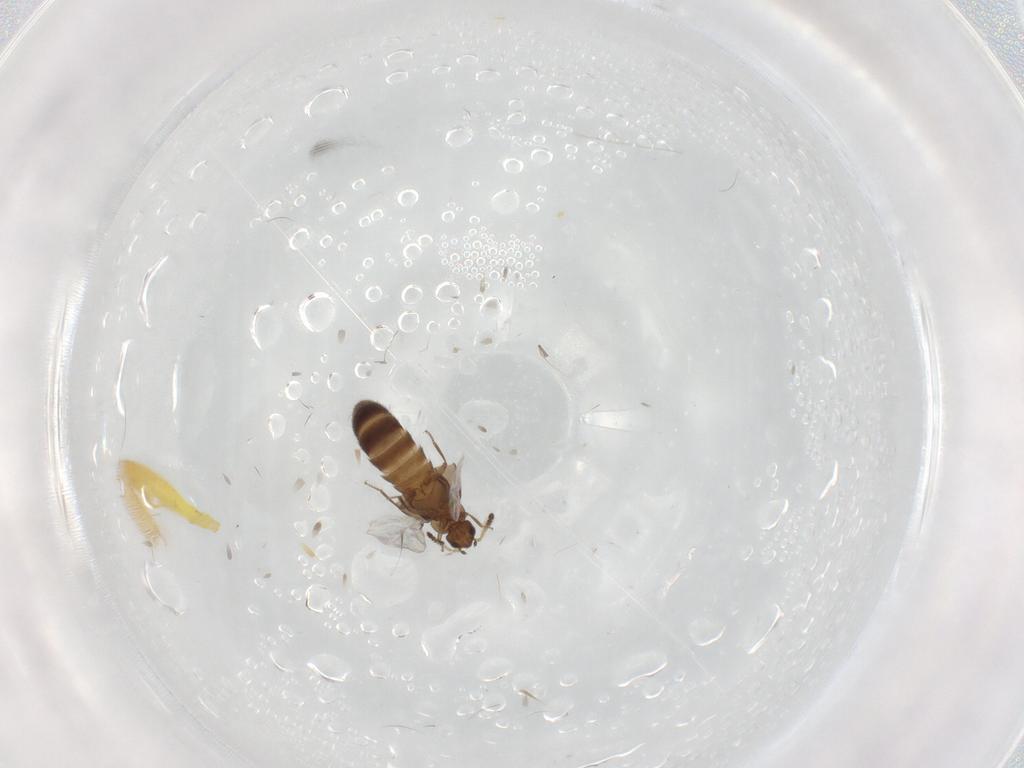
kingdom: Animalia
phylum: Arthropoda
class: Insecta
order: Coleoptera
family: Staphylinidae
